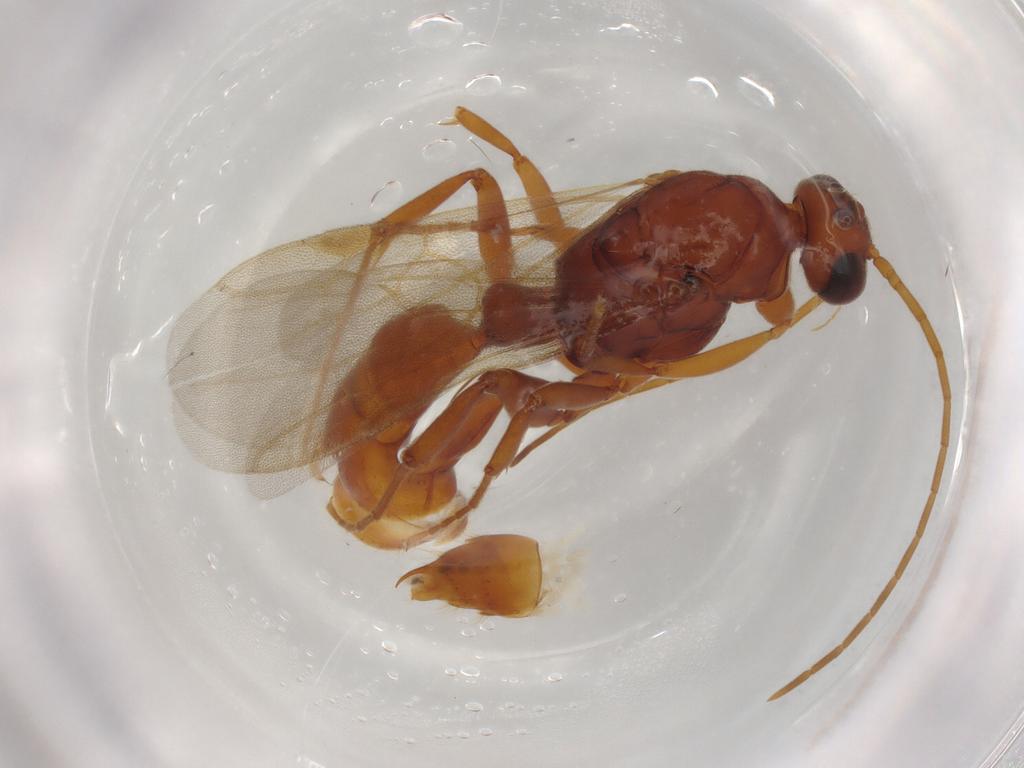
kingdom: Animalia
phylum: Arthropoda
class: Insecta
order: Hymenoptera
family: Formicidae
